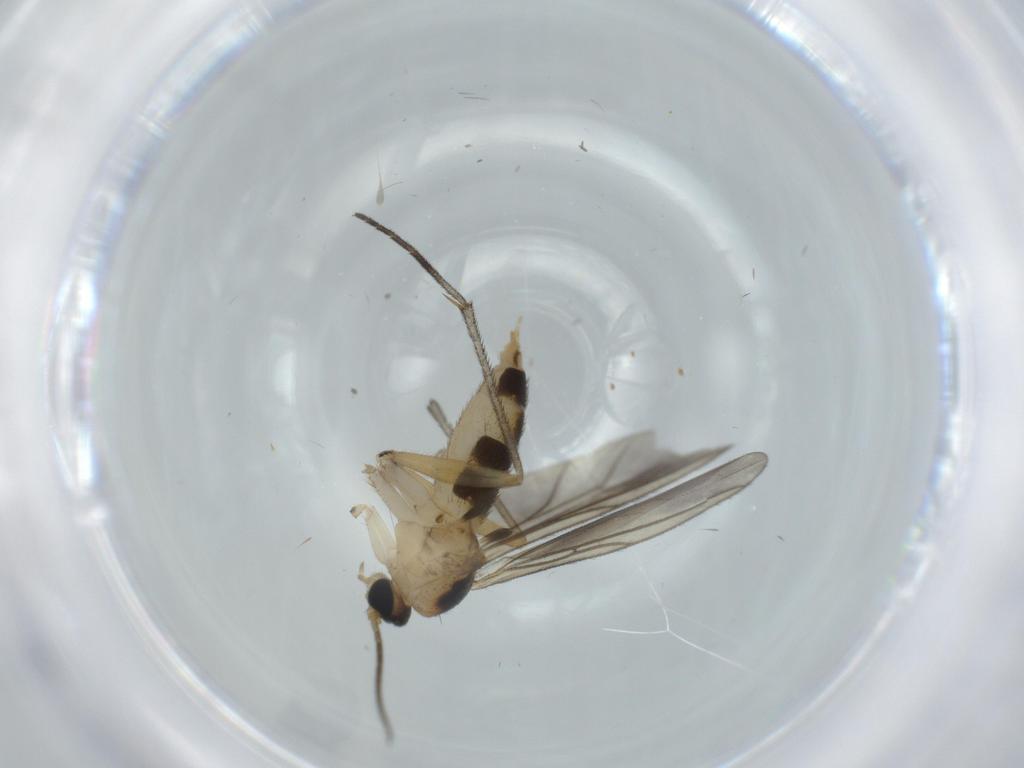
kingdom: Animalia
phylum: Arthropoda
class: Insecta
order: Diptera
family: Sciaridae
